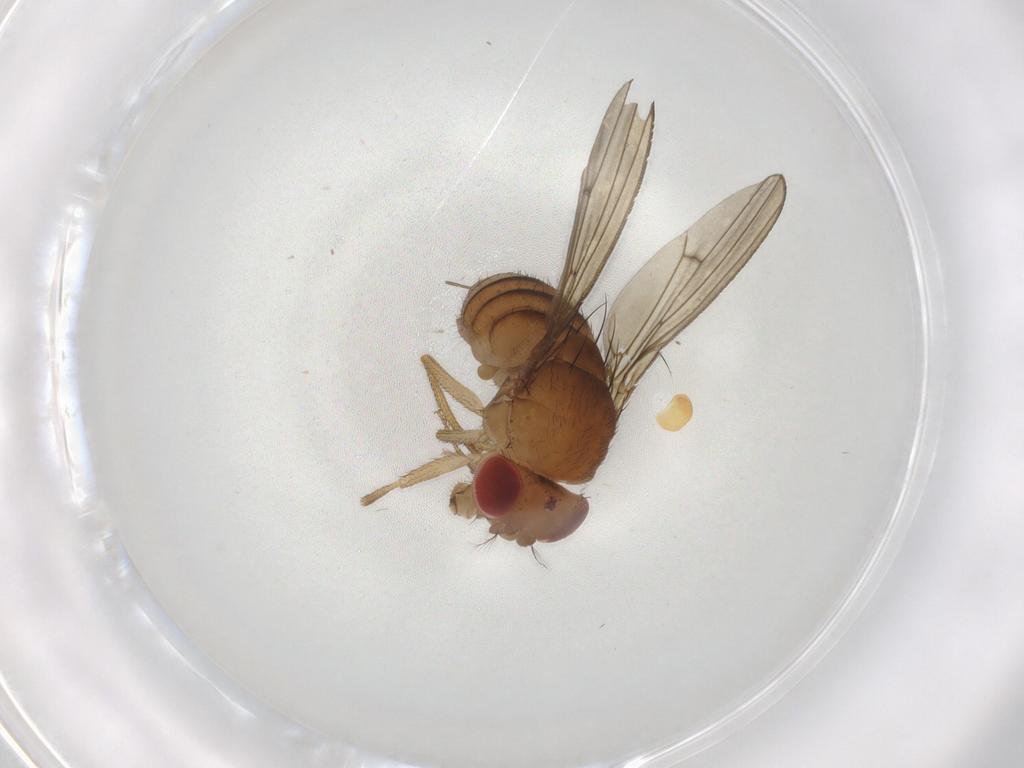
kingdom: Animalia
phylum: Arthropoda
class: Insecta
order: Diptera
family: Drosophilidae
